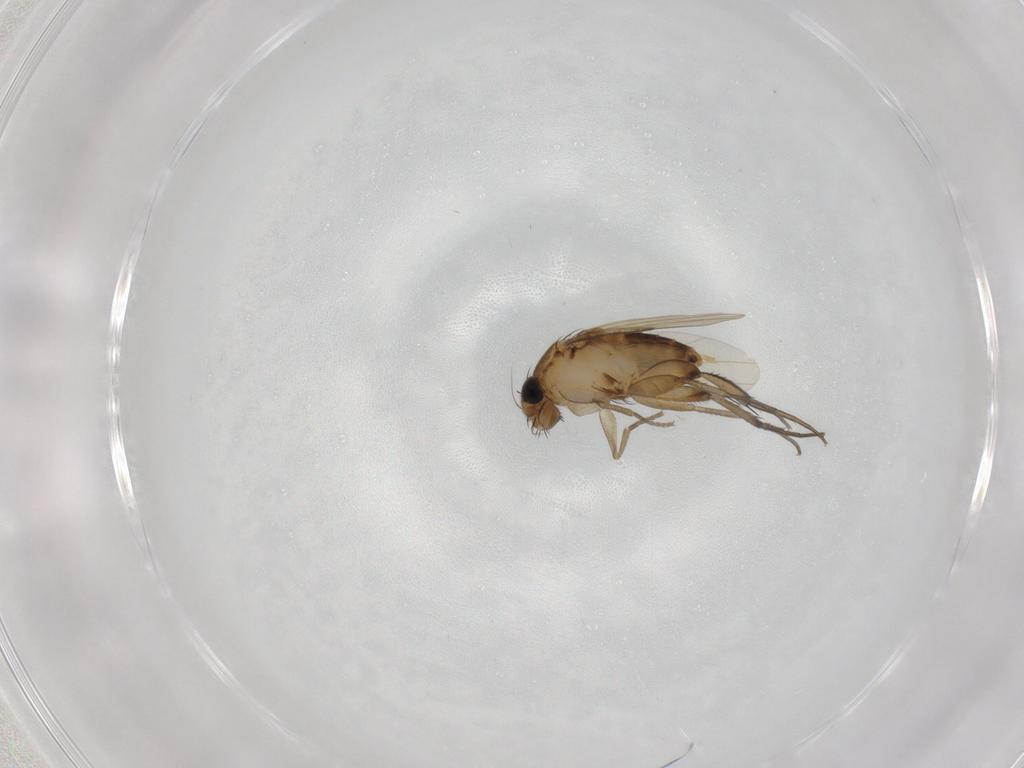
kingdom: Animalia
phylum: Arthropoda
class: Insecta
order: Diptera
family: Phoridae
